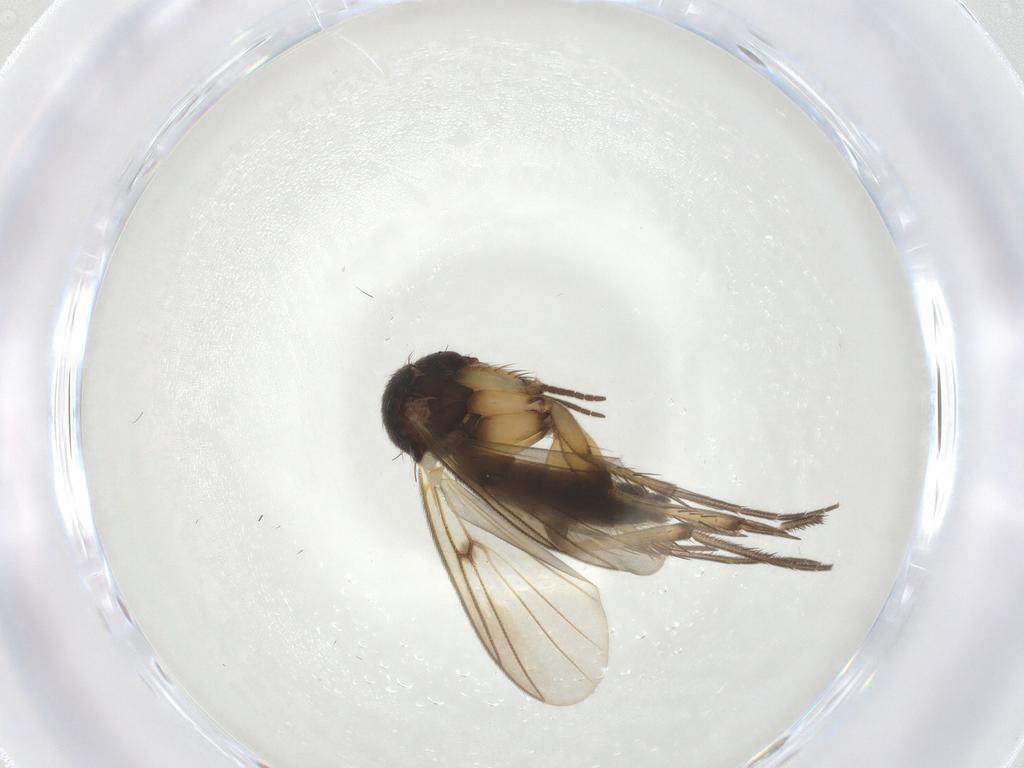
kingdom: Animalia
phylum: Arthropoda
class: Insecta
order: Diptera
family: Mycetophilidae
